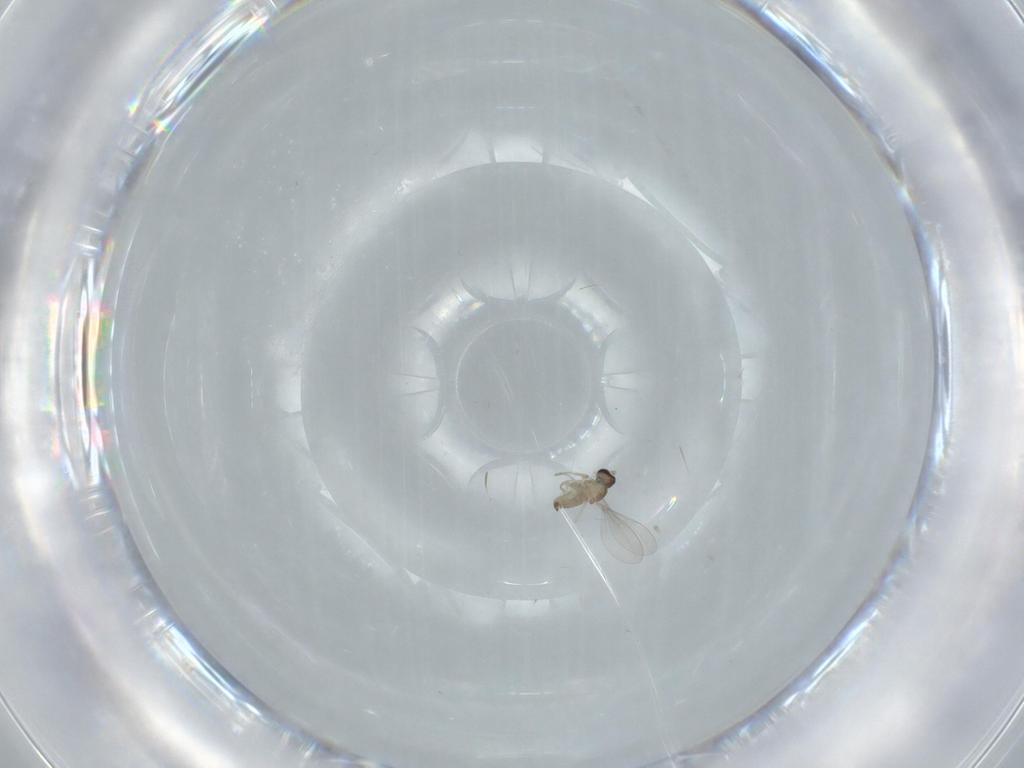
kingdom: Animalia
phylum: Arthropoda
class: Insecta
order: Diptera
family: Cecidomyiidae
